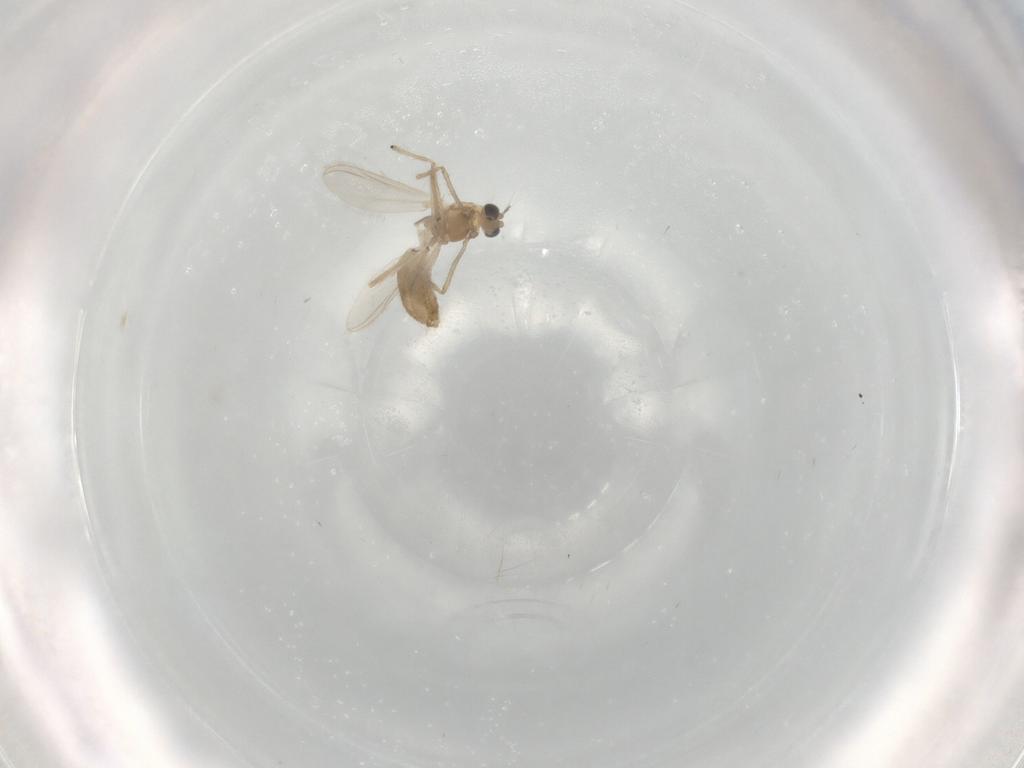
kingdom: Animalia
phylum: Arthropoda
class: Insecta
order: Diptera
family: Chironomidae
